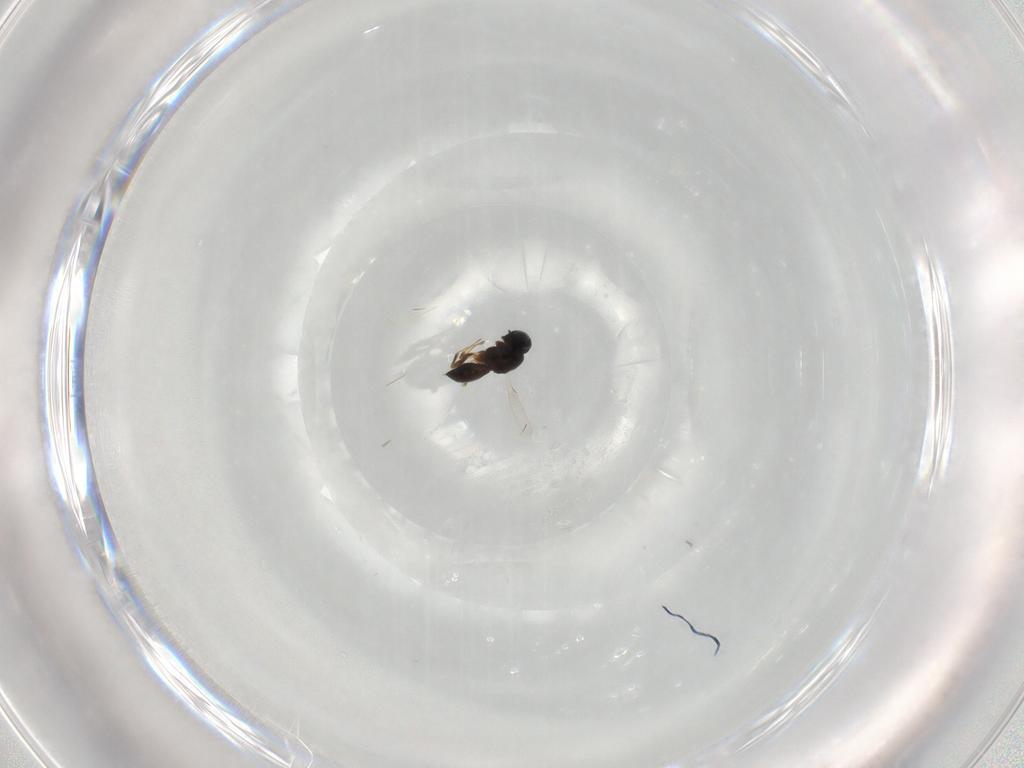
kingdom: Animalia
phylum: Arthropoda
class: Insecta
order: Hymenoptera
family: Scelionidae
